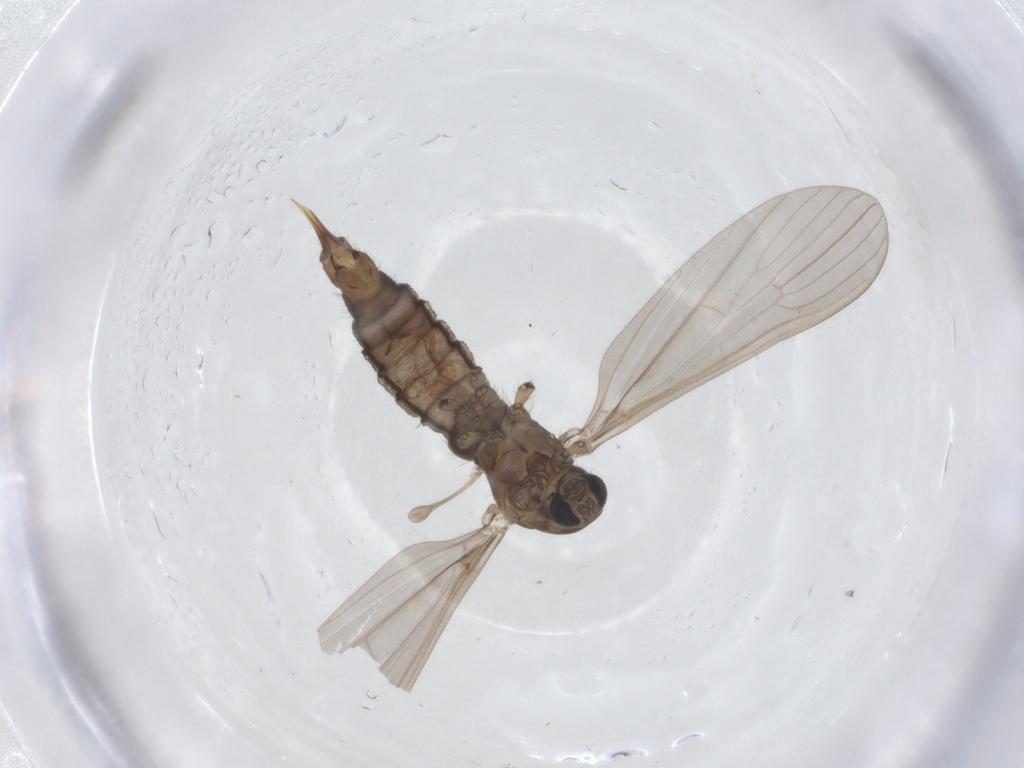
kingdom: Animalia
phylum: Arthropoda
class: Insecta
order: Diptera
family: Limoniidae
